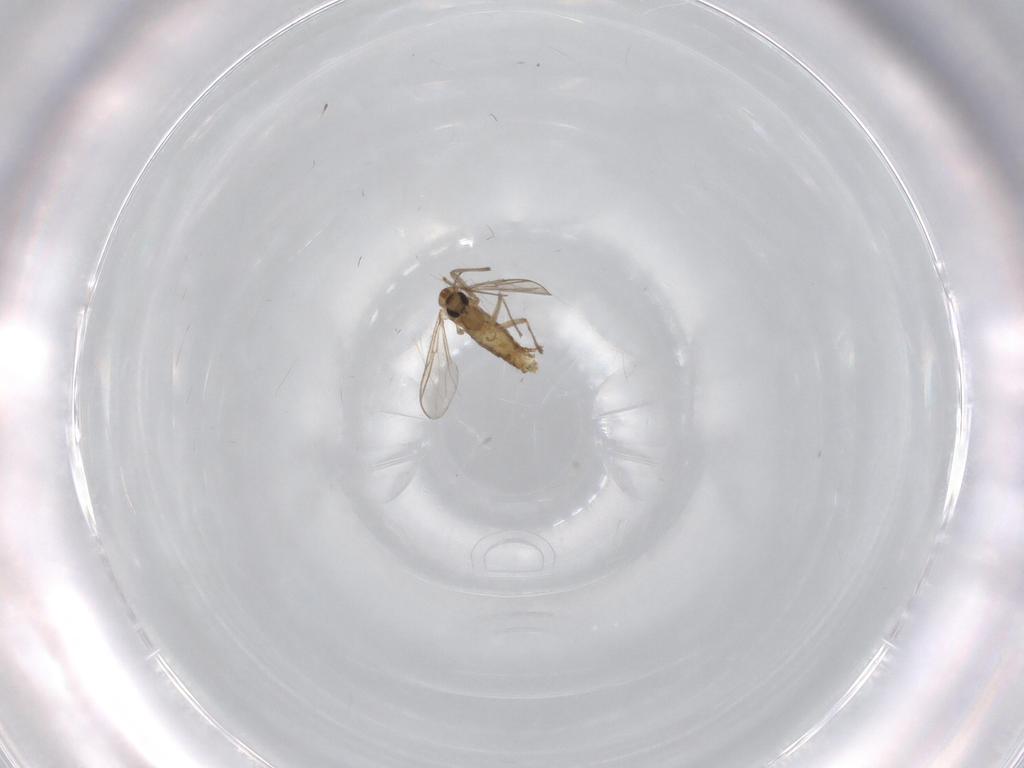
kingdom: Animalia
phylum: Arthropoda
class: Insecta
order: Diptera
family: Chironomidae
